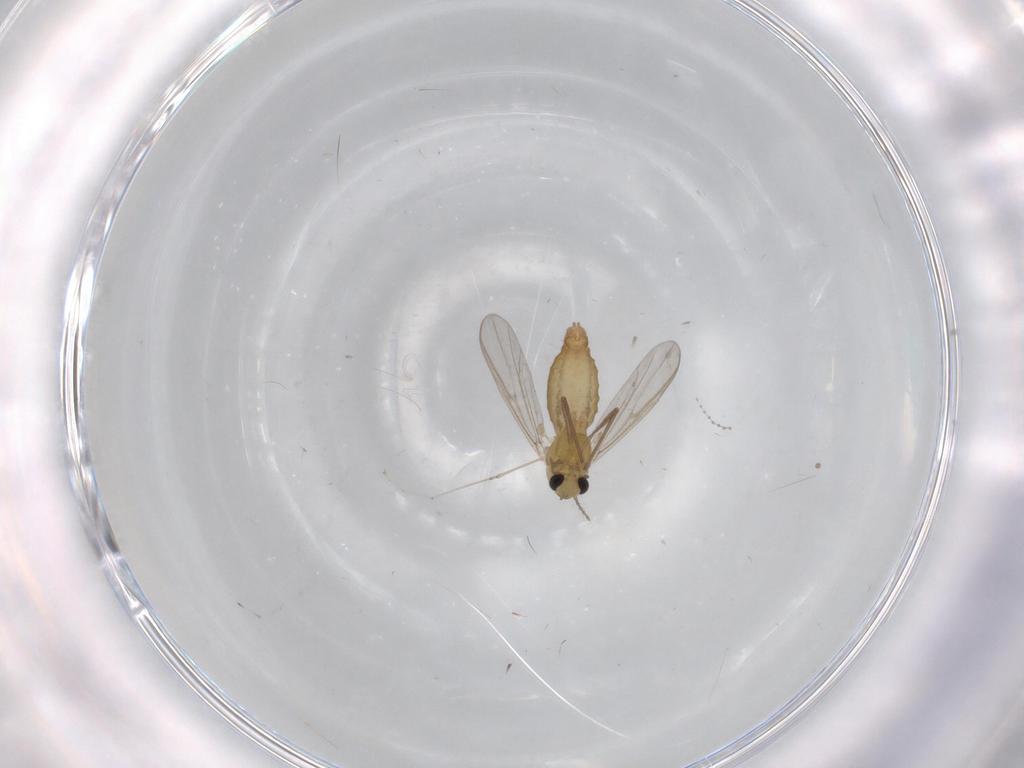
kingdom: Animalia
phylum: Arthropoda
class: Insecta
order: Diptera
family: Chironomidae
